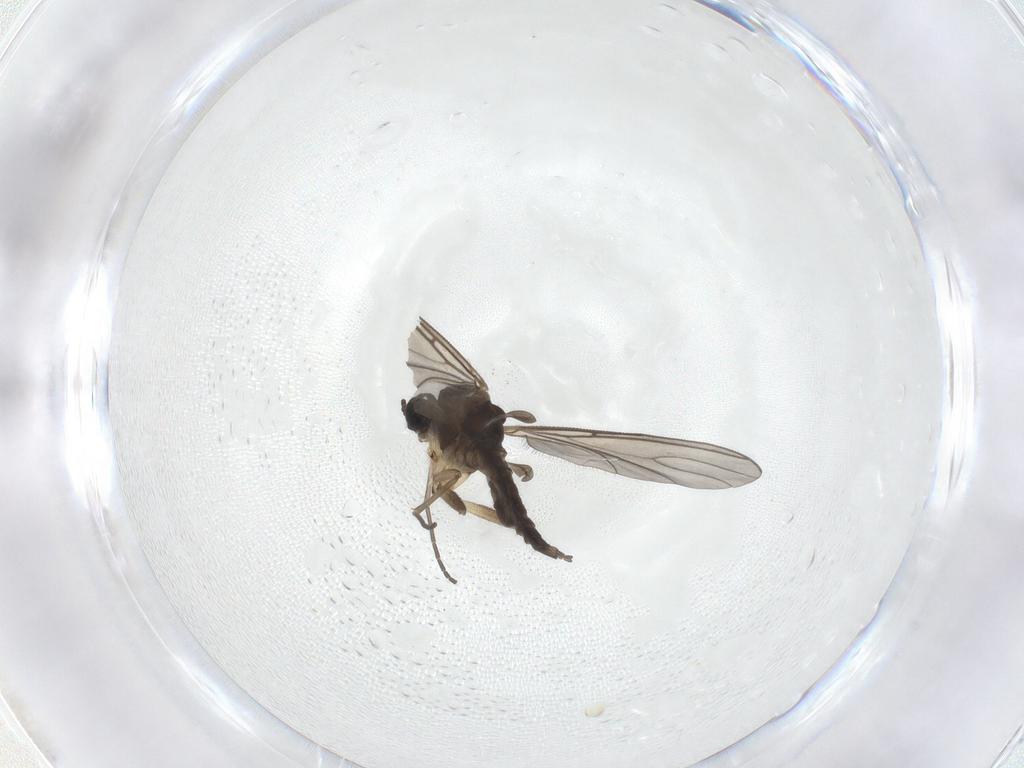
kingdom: Animalia
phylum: Arthropoda
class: Insecta
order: Diptera
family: Sciaridae
